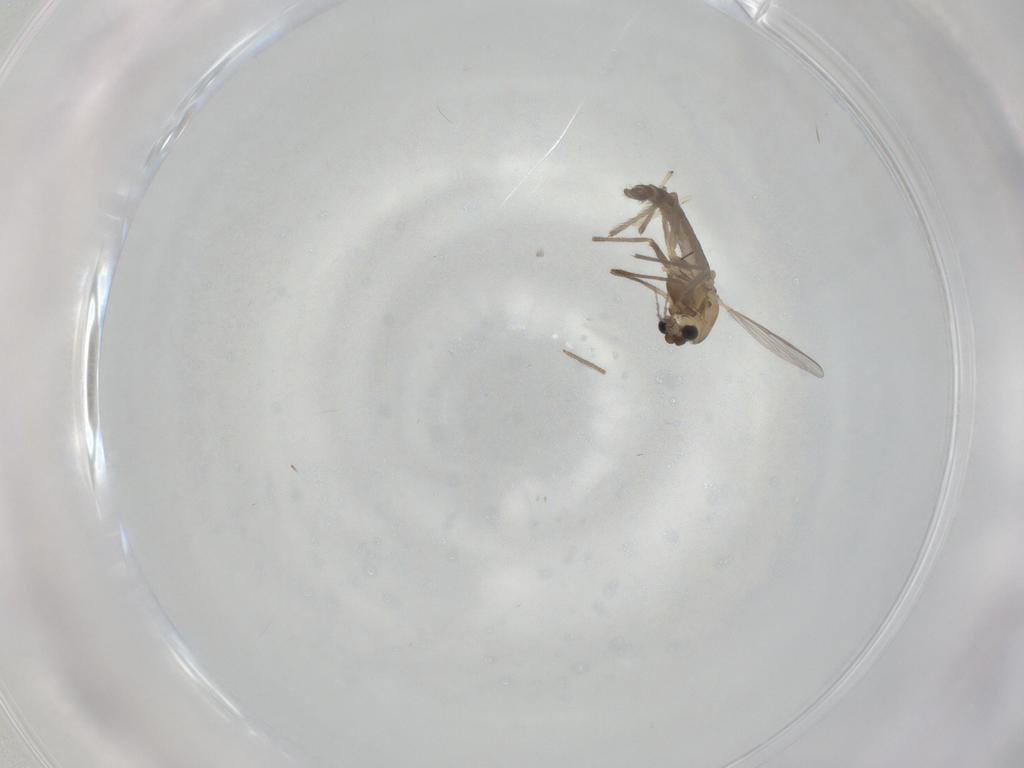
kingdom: Animalia
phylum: Arthropoda
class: Insecta
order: Diptera
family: Chironomidae
